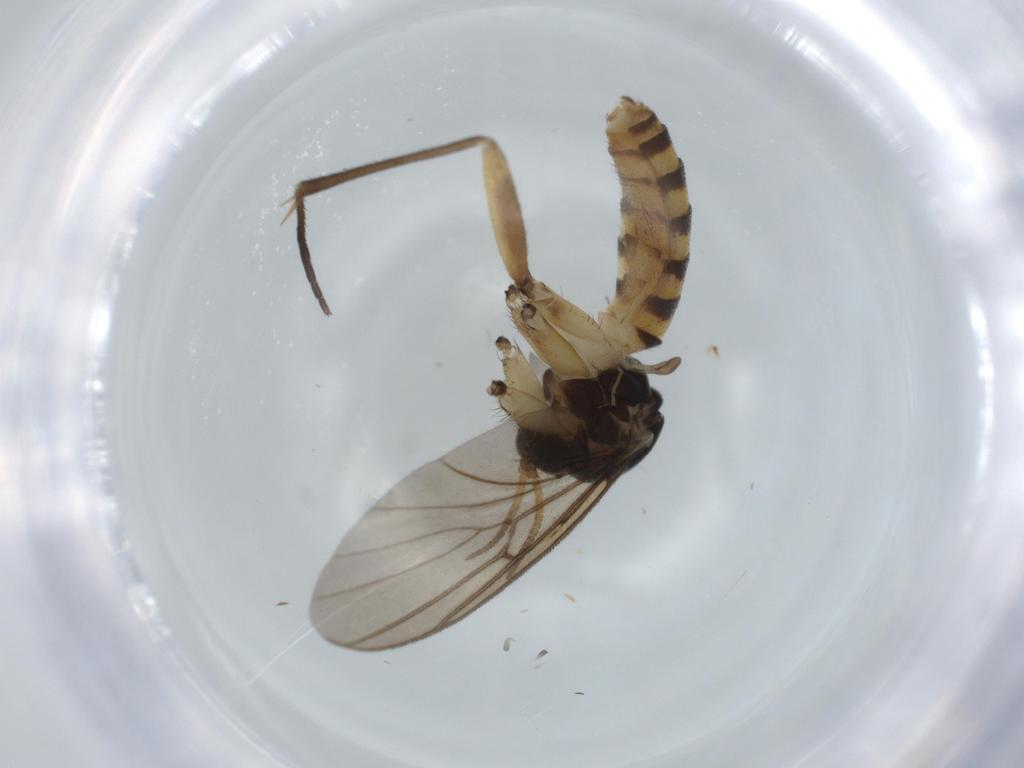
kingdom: Animalia
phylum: Arthropoda
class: Insecta
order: Diptera
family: Mycetophilidae
